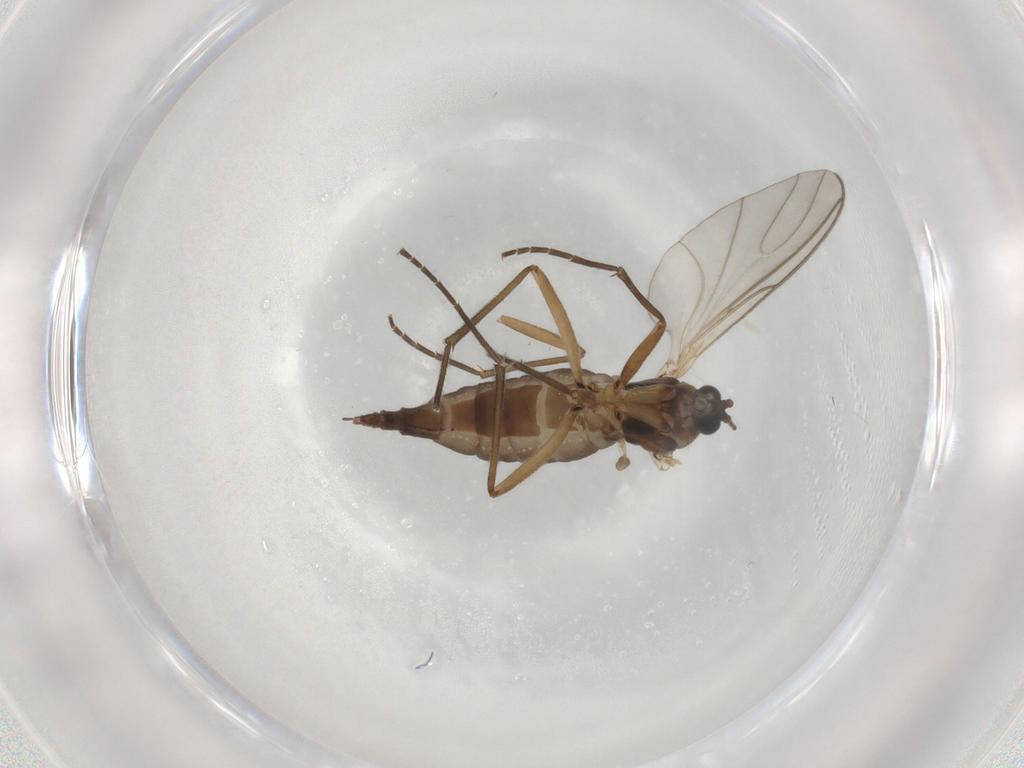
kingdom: Animalia
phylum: Arthropoda
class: Insecta
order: Diptera
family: Sciaridae
